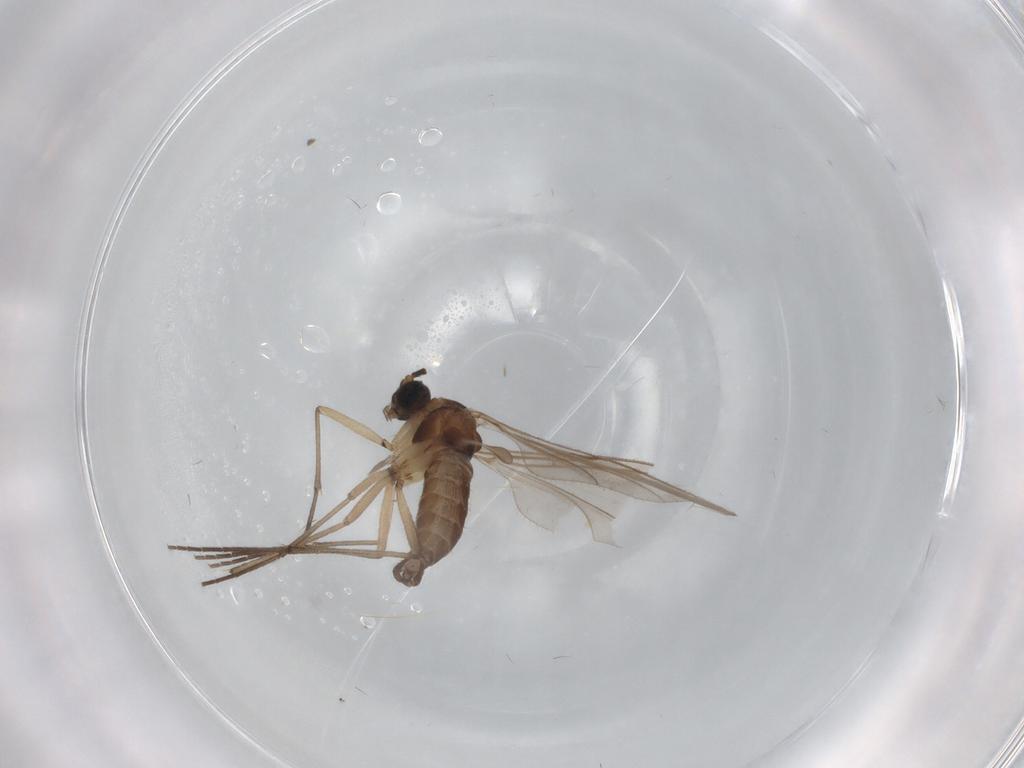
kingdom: Animalia
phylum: Arthropoda
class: Insecta
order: Diptera
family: Sciaridae
